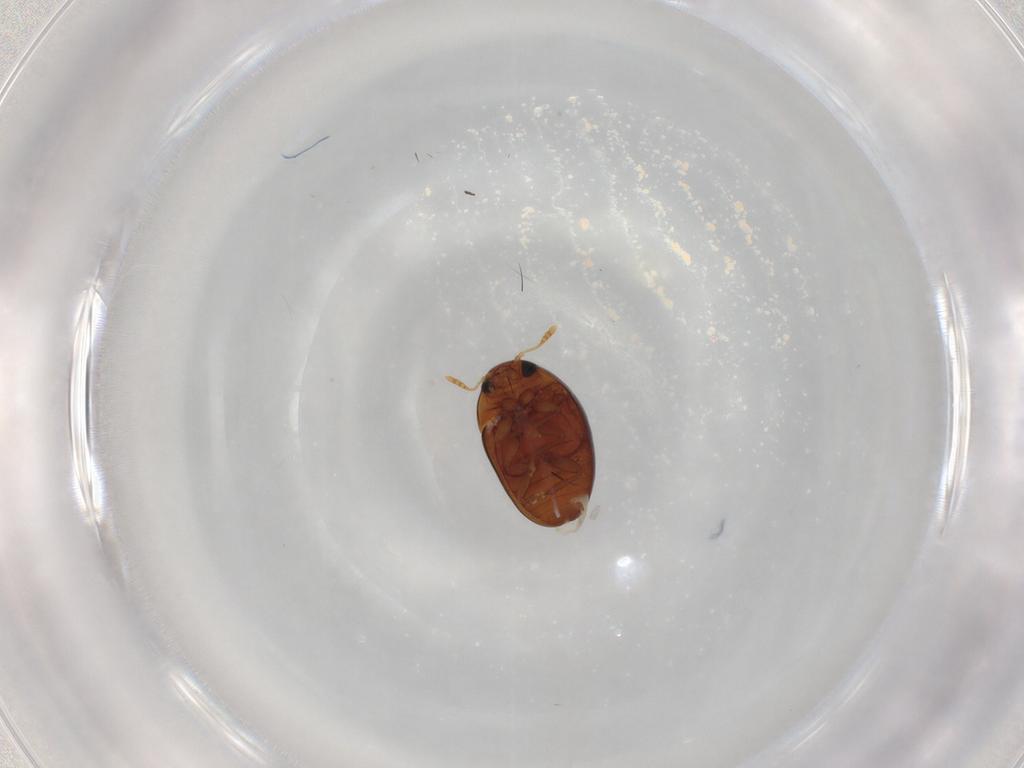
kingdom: Animalia
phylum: Arthropoda
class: Insecta
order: Coleoptera
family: Phalacridae
